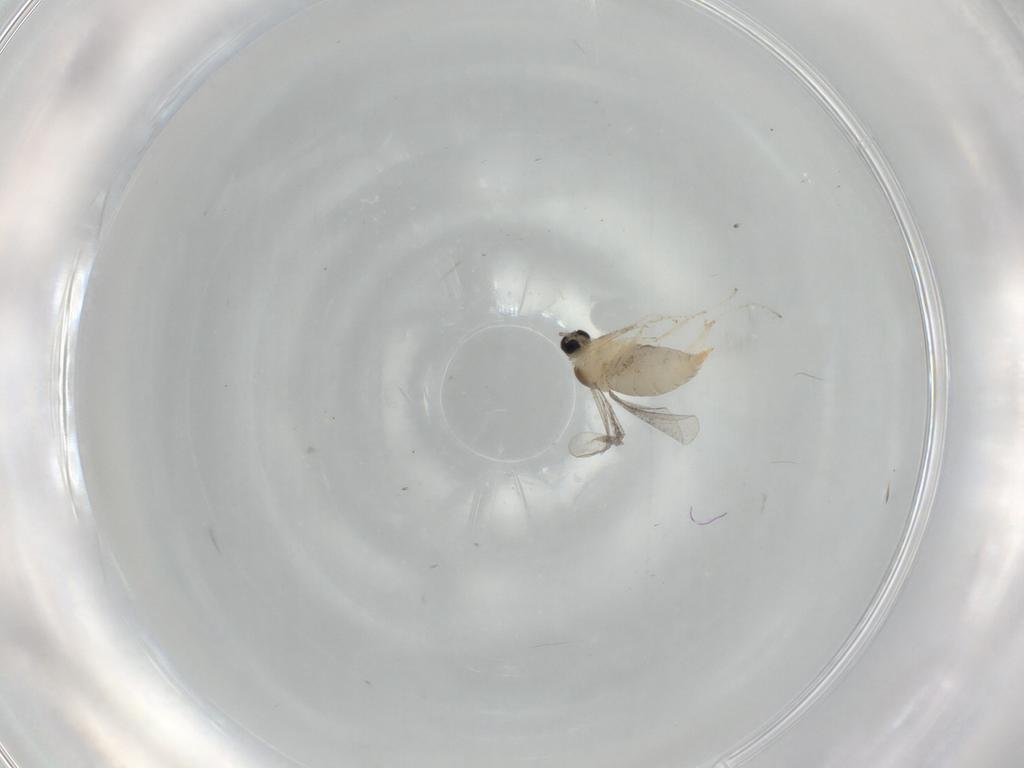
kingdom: Animalia
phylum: Arthropoda
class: Insecta
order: Diptera
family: Cecidomyiidae
